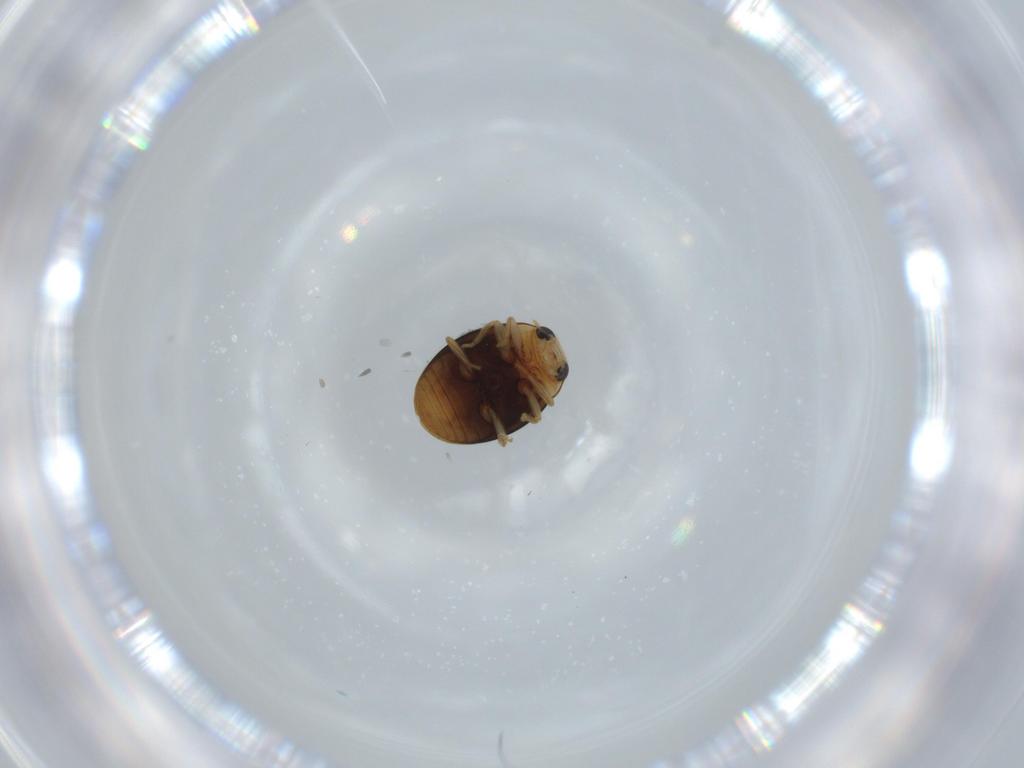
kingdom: Animalia
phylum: Arthropoda
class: Insecta
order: Coleoptera
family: Coccinellidae
